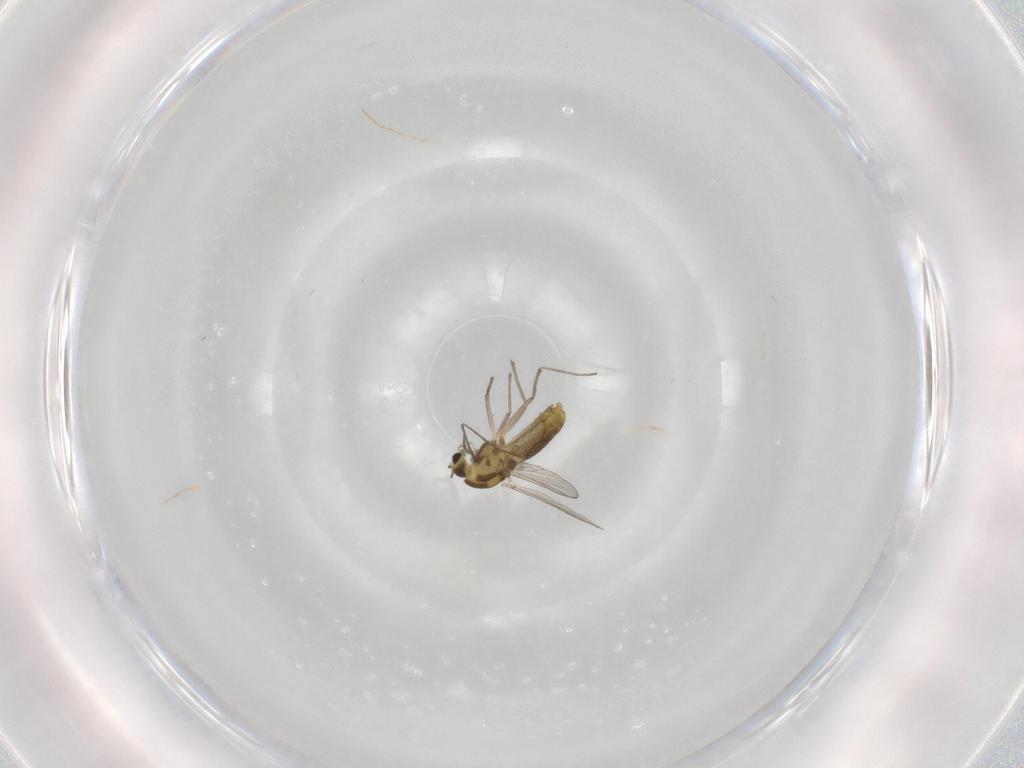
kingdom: Animalia
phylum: Arthropoda
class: Insecta
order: Diptera
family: Chironomidae
